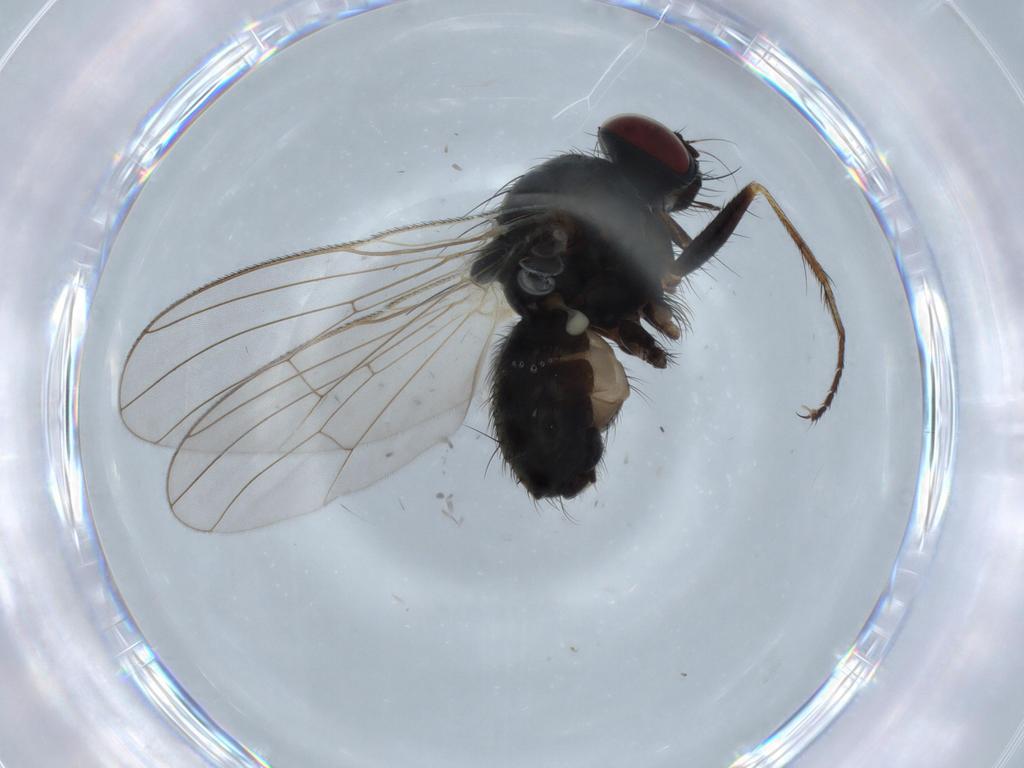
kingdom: Animalia
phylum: Arthropoda
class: Insecta
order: Diptera
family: Muscidae
